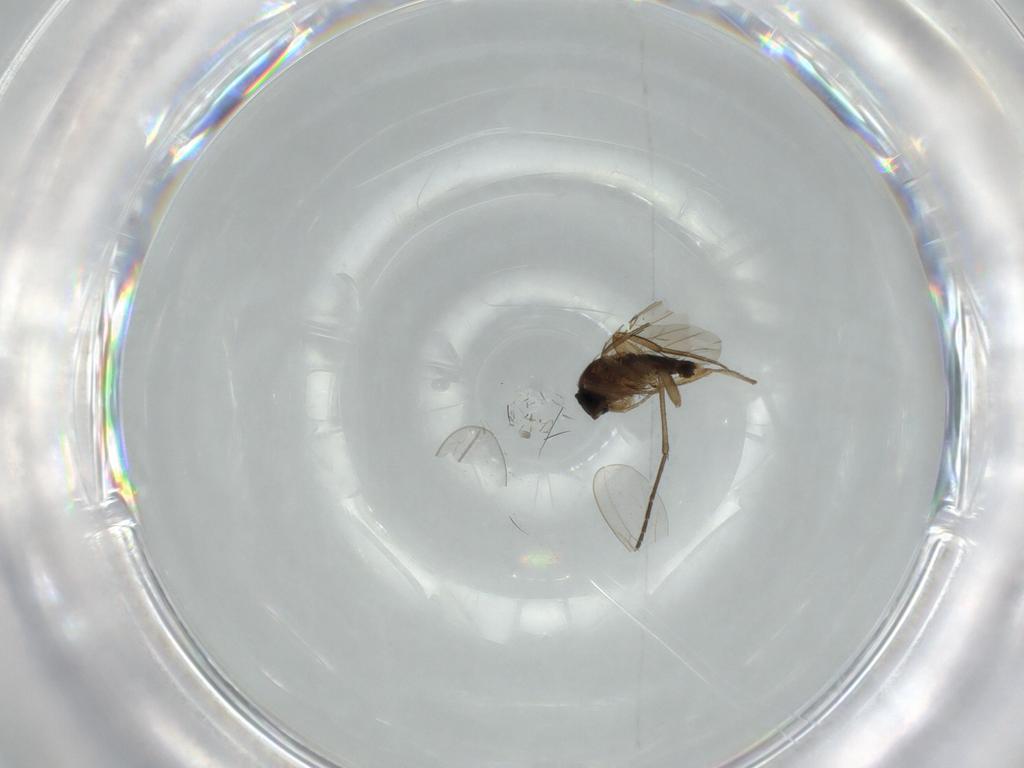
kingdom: Animalia
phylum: Arthropoda
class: Insecta
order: Diptera
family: Phoridae
